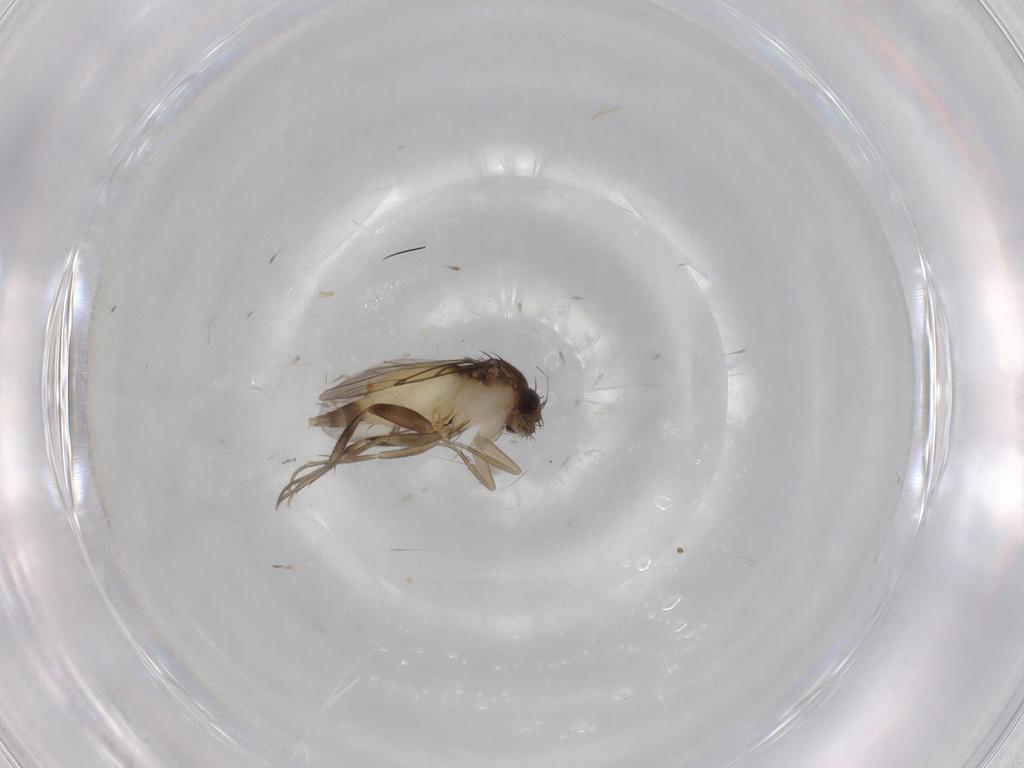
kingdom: Animalia
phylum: Arthropoda
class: Insecta
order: Diptera
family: Phoridae
